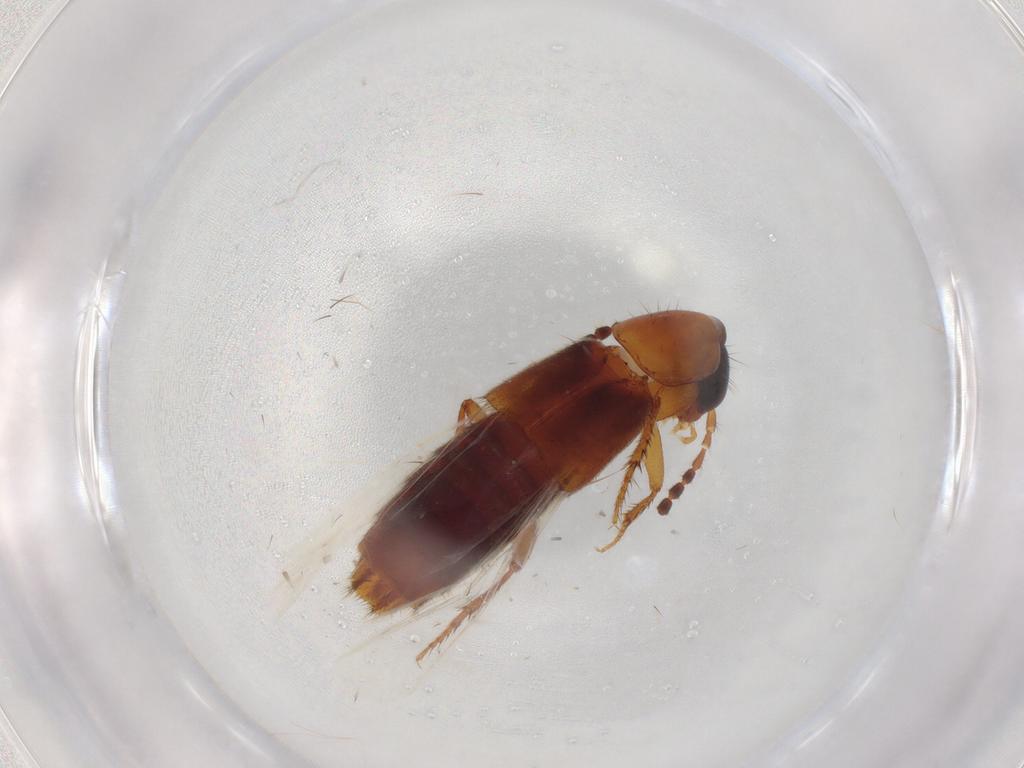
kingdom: Animalia
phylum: Arthropoda
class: Insecta
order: Coleoptera
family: Staphylinidae
